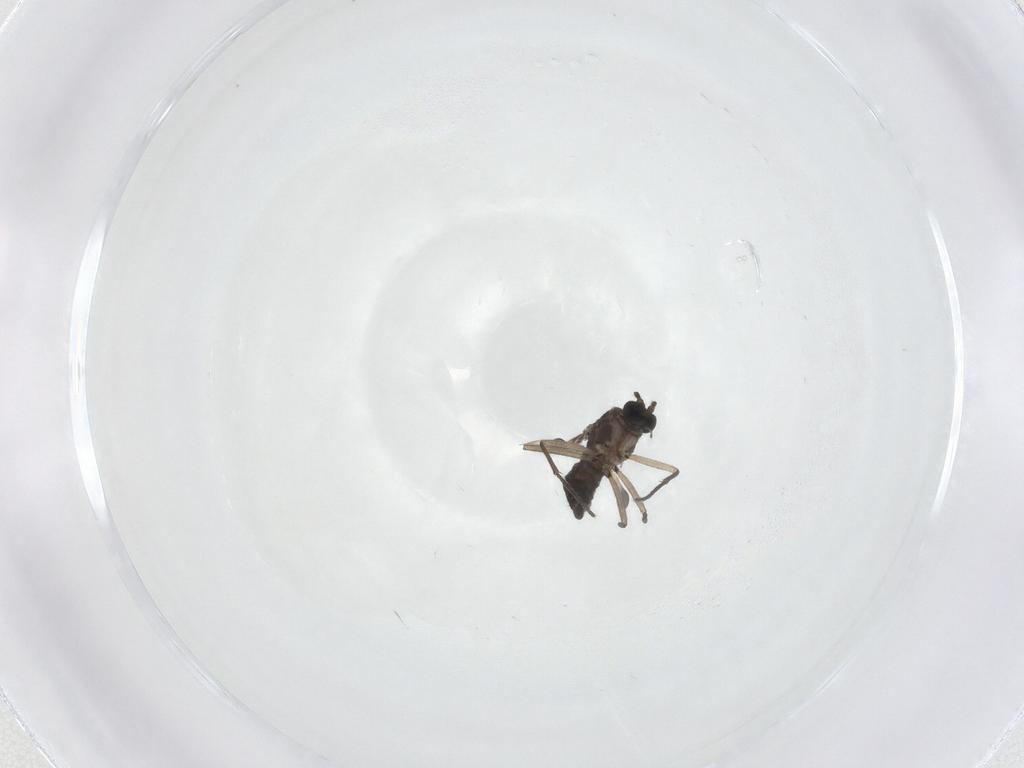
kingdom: Animalia
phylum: Arthropoda
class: Insecta
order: Diptera
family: Sciaridae
